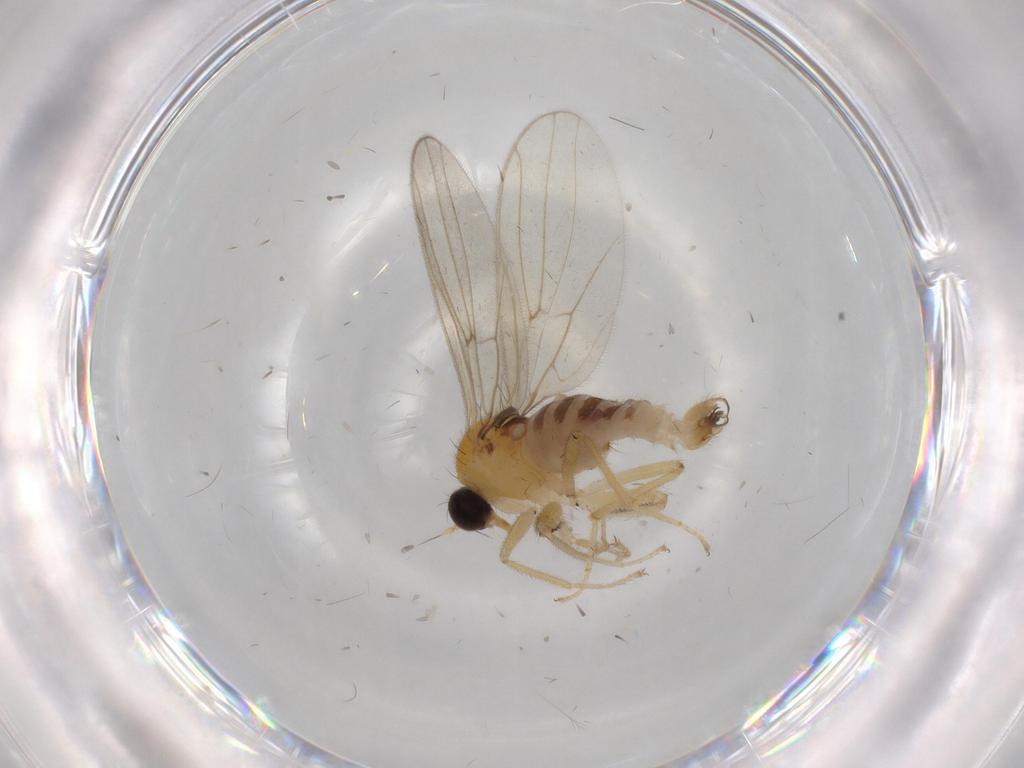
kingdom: Animalia
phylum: Arthropoda
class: Insecta
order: Diptera
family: Hybotidae
